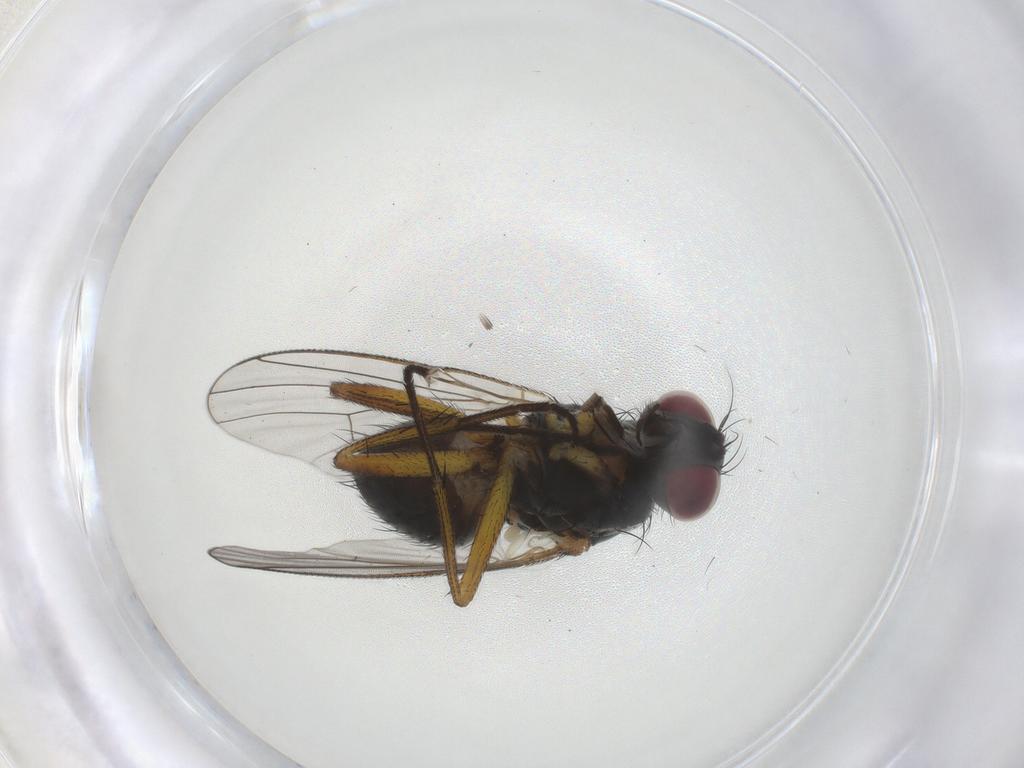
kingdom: Animalia
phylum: Arthropoda
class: Insecta
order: Diptera
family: Muscidae
